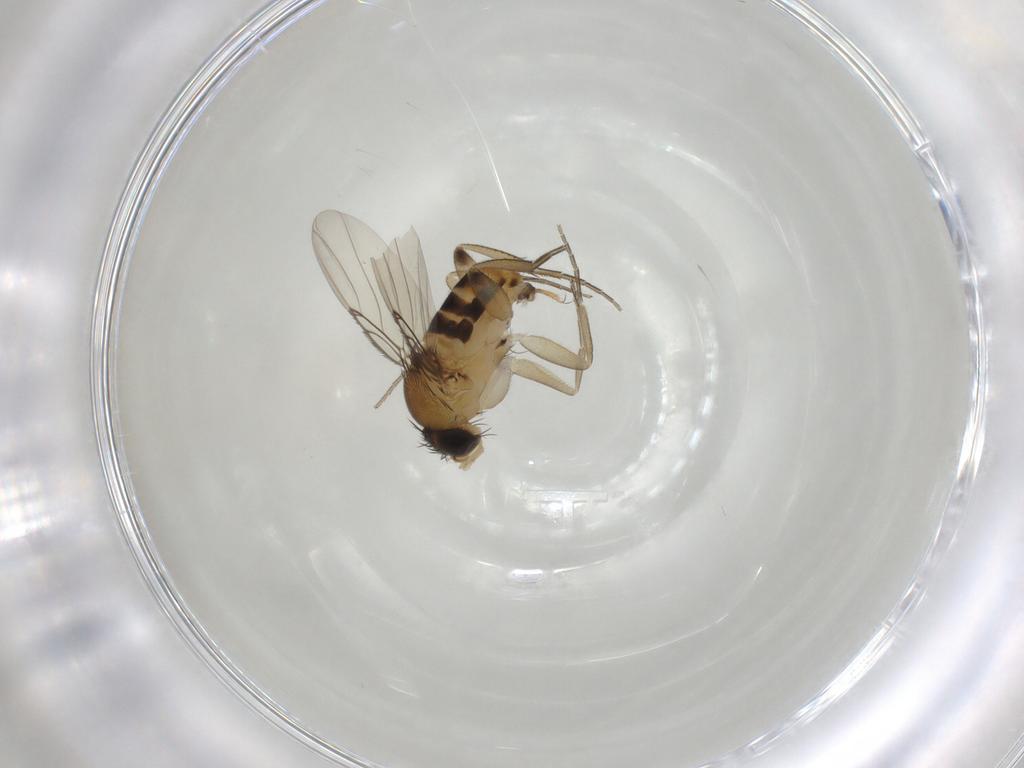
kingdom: Animalia
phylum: Arthropoda
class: Insecta
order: Diptera
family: Phoridae
